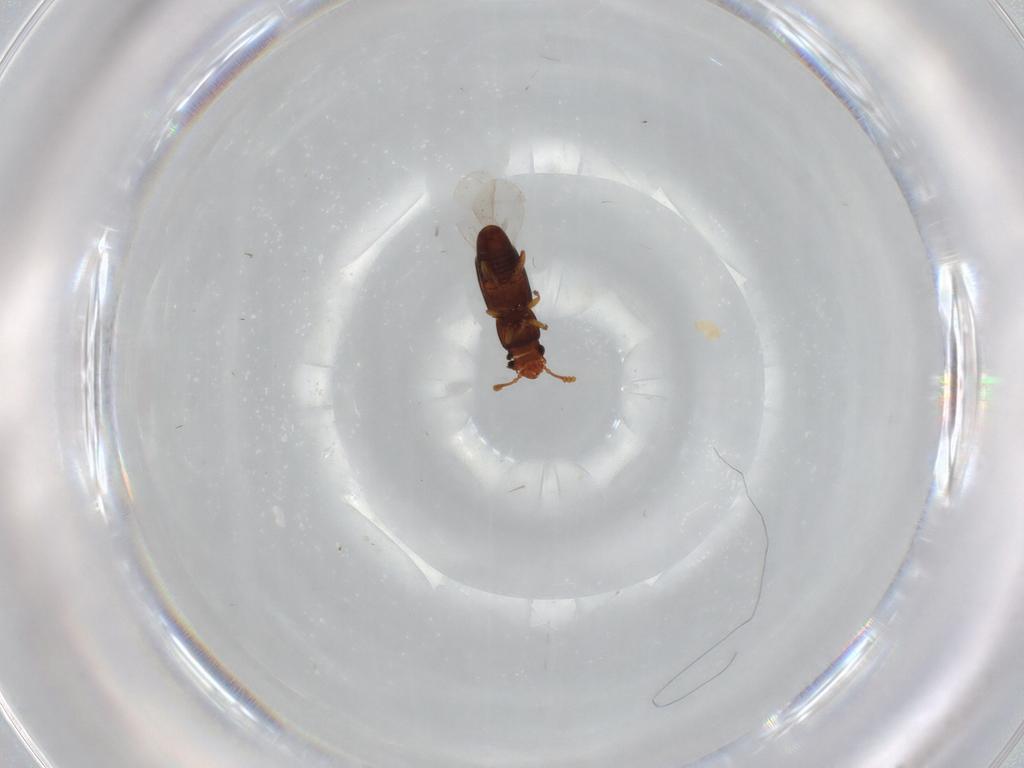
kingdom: Animalia
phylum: Arthropoda
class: Insecta
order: Coleoptera
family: Smicripidae
